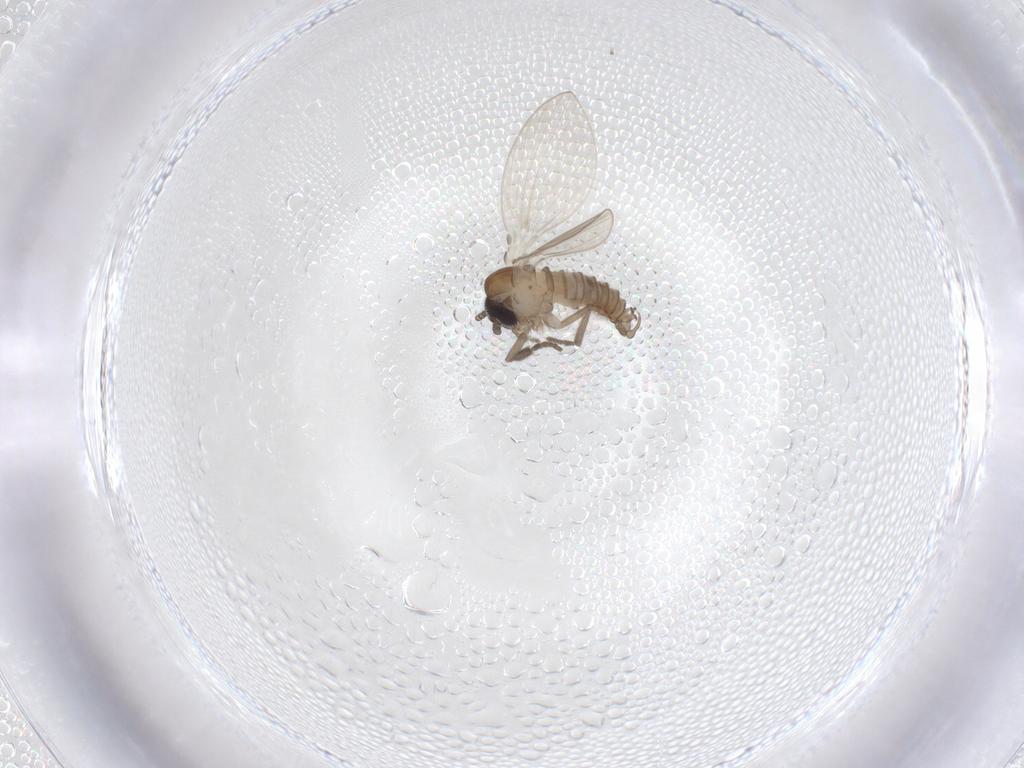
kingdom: Animalia
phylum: Arthropoda
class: Insecta
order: Diptera
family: Psychodidae
